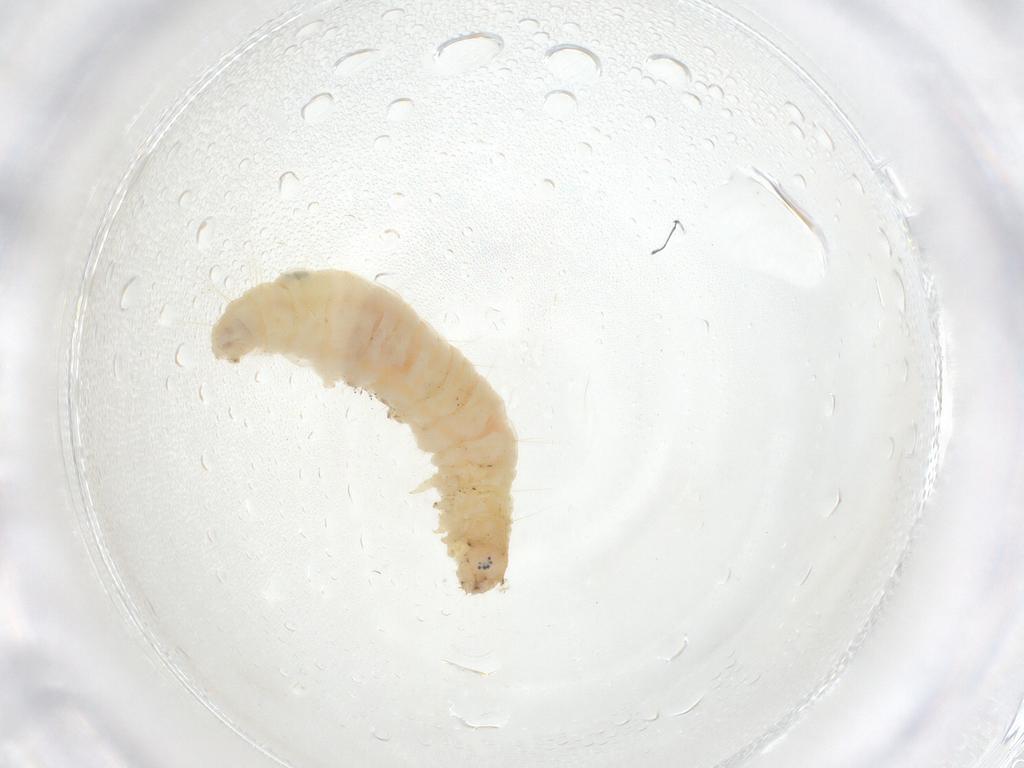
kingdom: Animalia
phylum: Arthropoda
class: Insecta
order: Lepidoptera
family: Pyralidae
